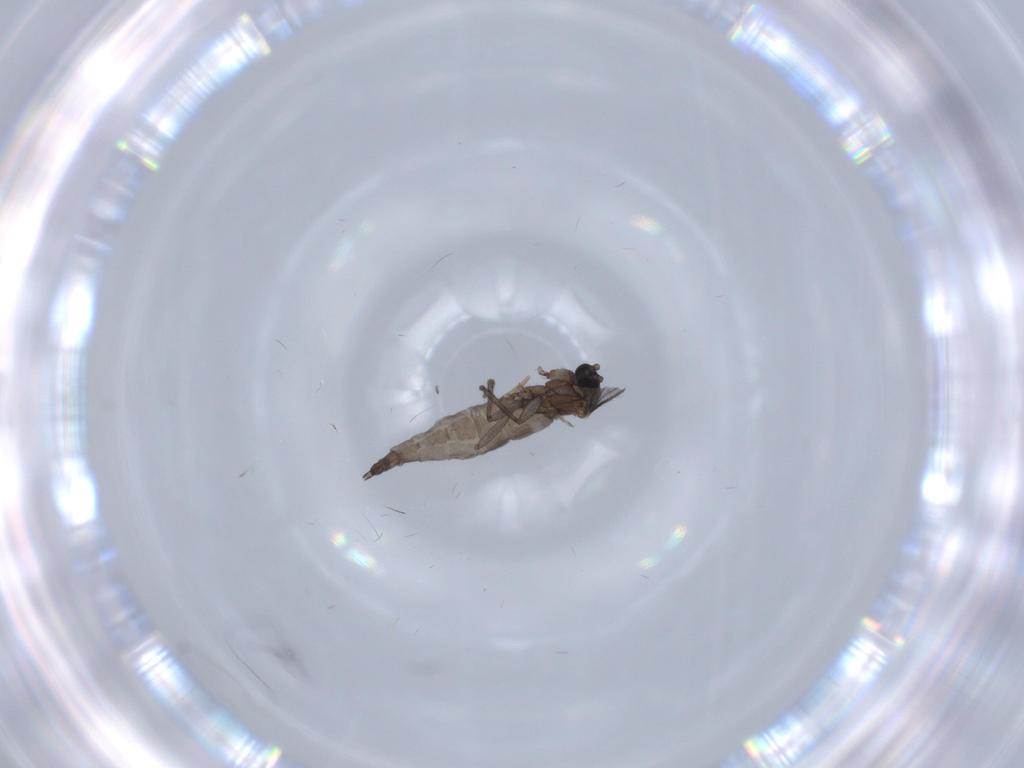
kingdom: Animalia
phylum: Arthropoda
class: Insecta
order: Diptera
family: Sciaridae
